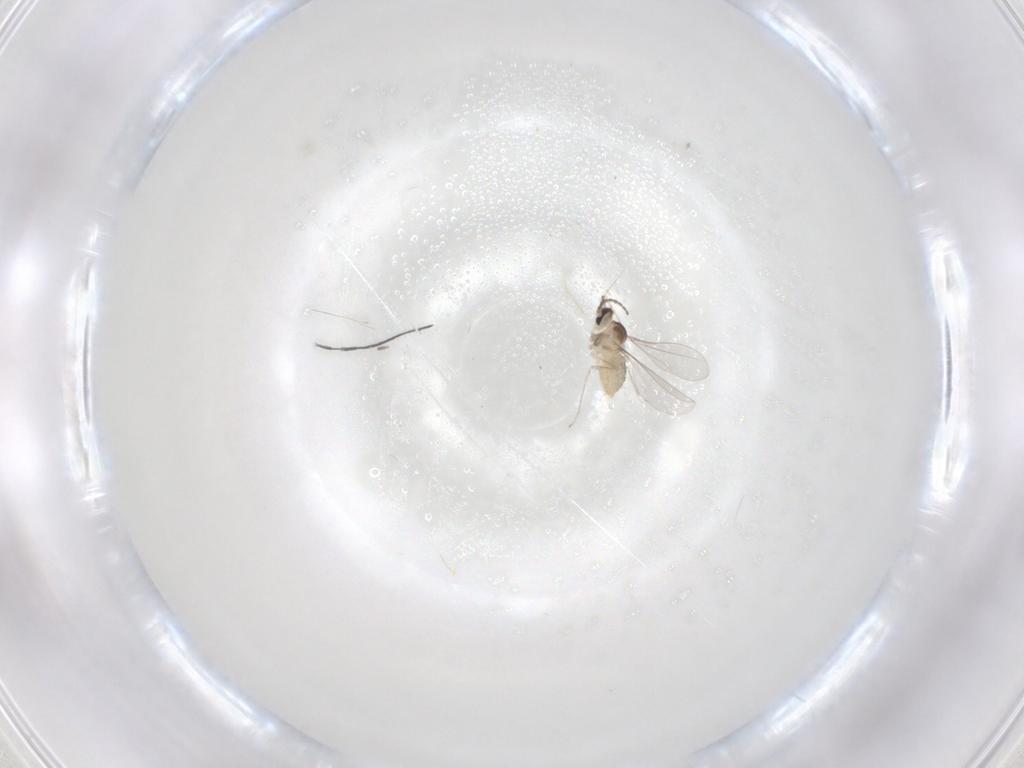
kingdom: Animalia
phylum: Arthropoda
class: Insecta
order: Diptera
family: Cecidomyiidae
